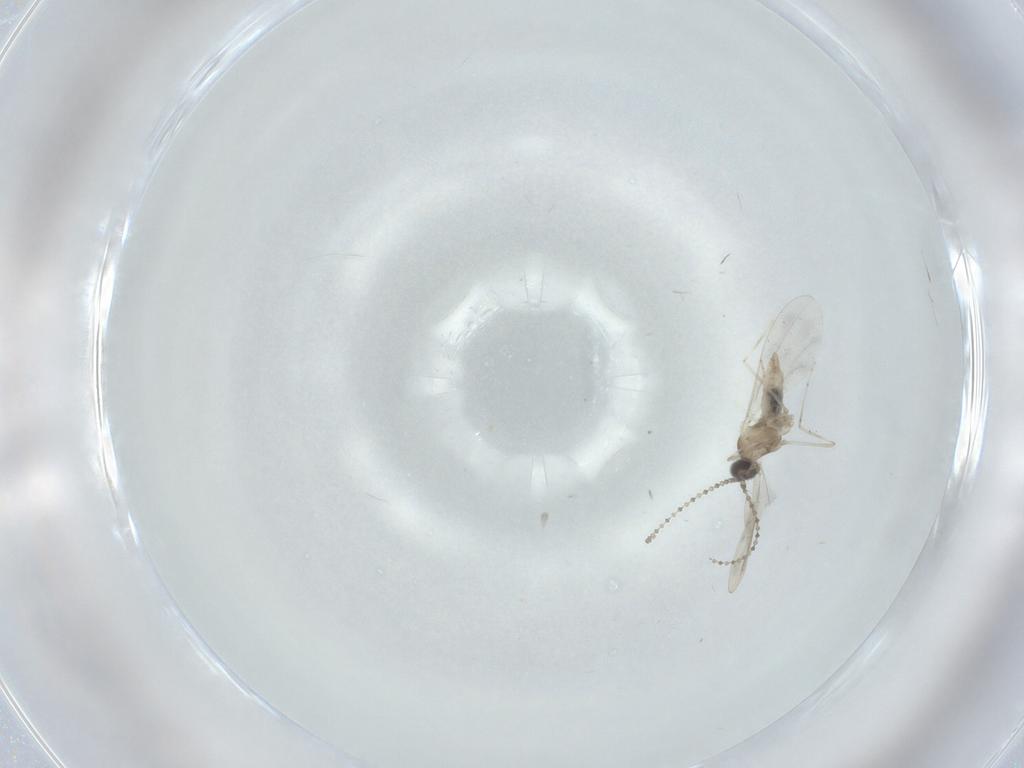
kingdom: Animalia
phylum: Arthropoda
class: Insecta
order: Diptera
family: Cecidomyiidae
